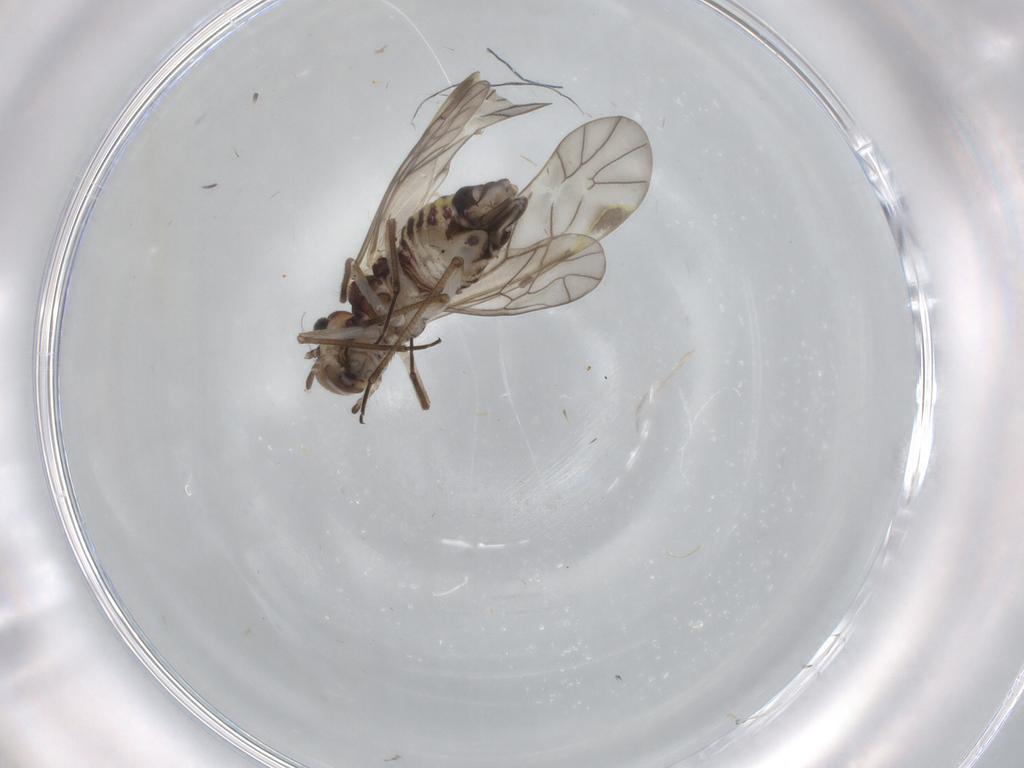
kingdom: Animalia
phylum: Arthropoda
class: Insecta
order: Psocodea
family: Psocidae
